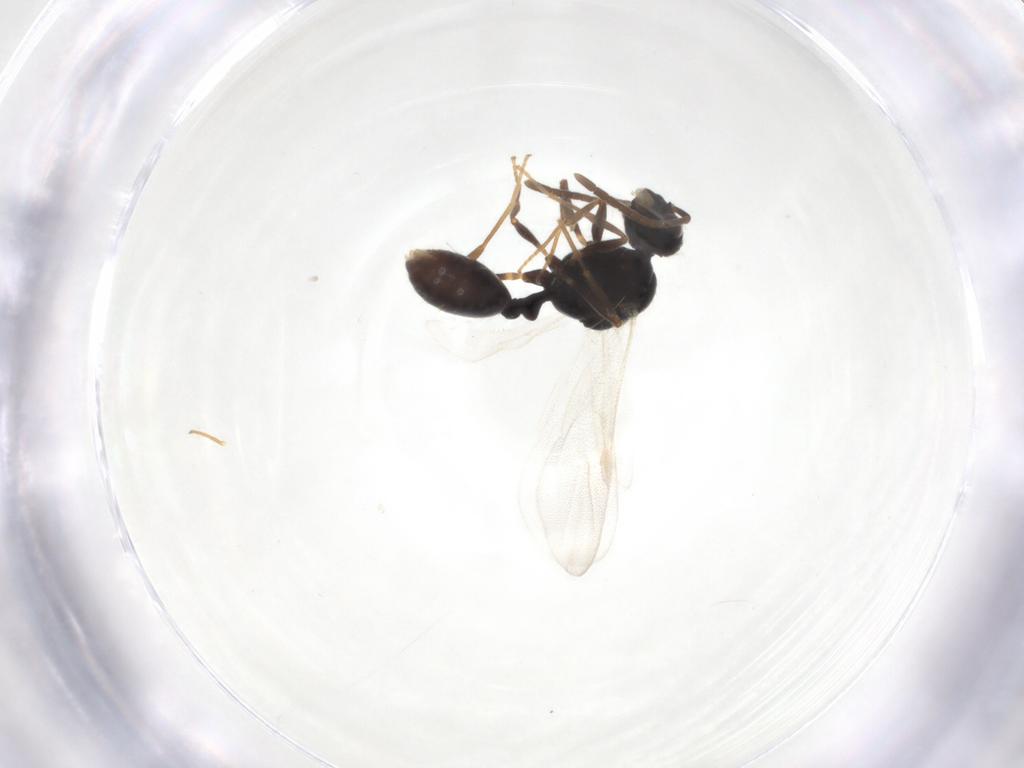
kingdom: Animalia
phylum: Arthropoda
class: Insecta
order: Hymenoptera
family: Formicidae
